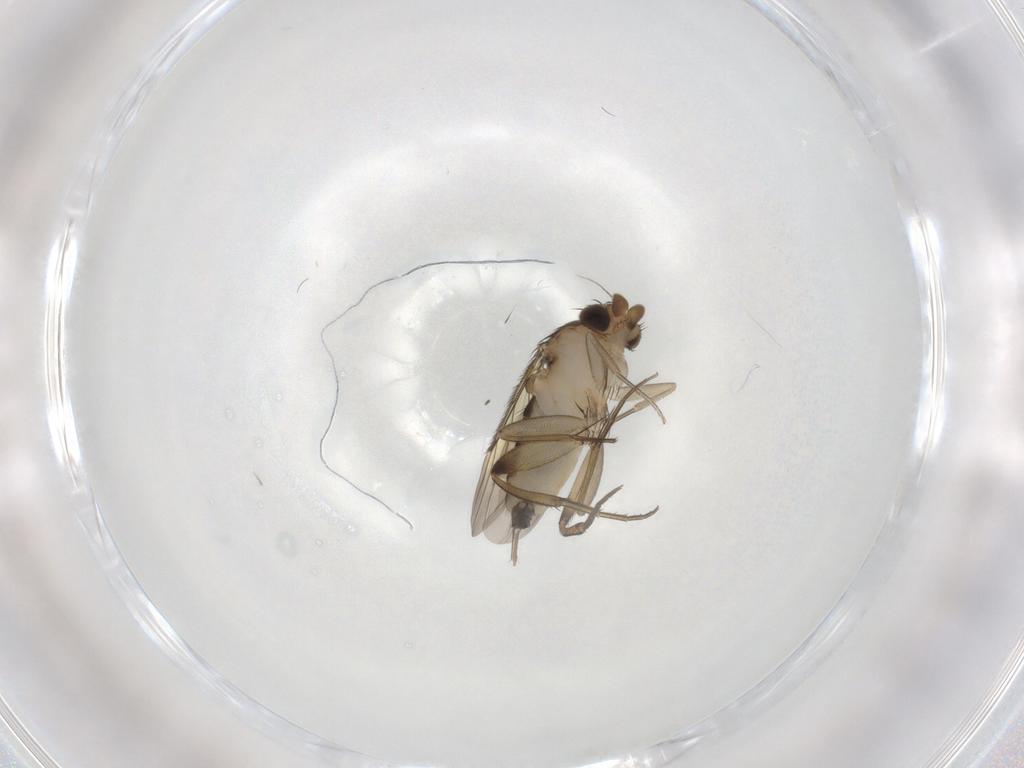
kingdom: Animalia
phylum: Arthropoda
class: Insecta
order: Diptera
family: Phoridae
